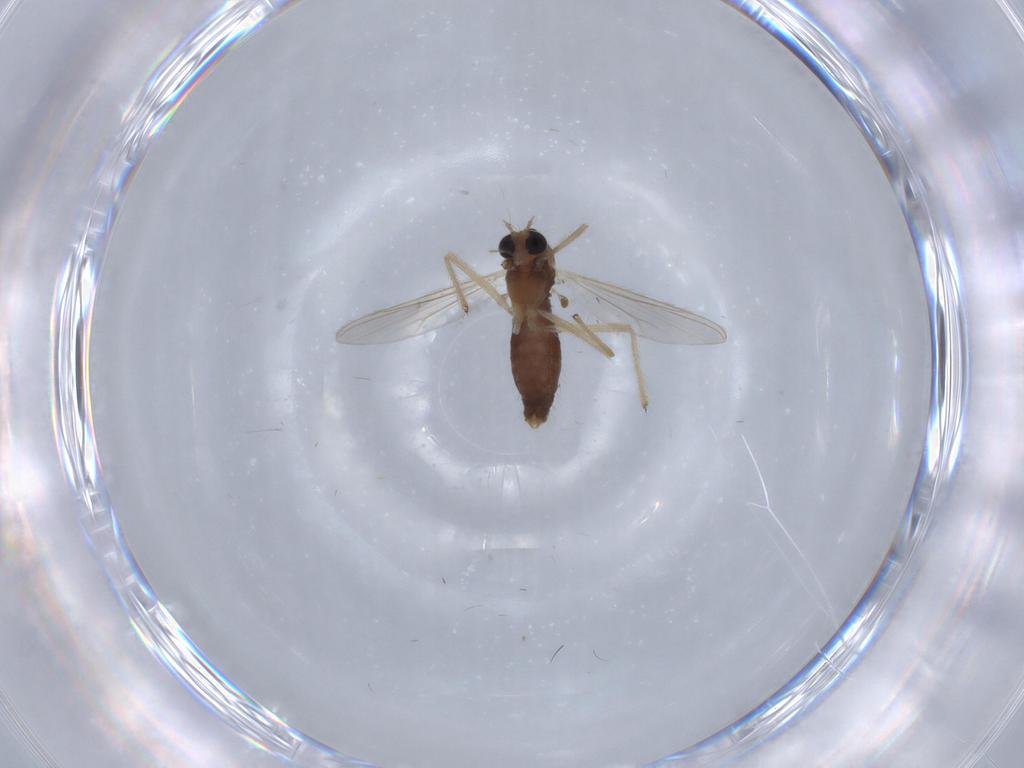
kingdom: Animalia
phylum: Arthropoda
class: Insecta
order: Diptera
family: Chironomidae
